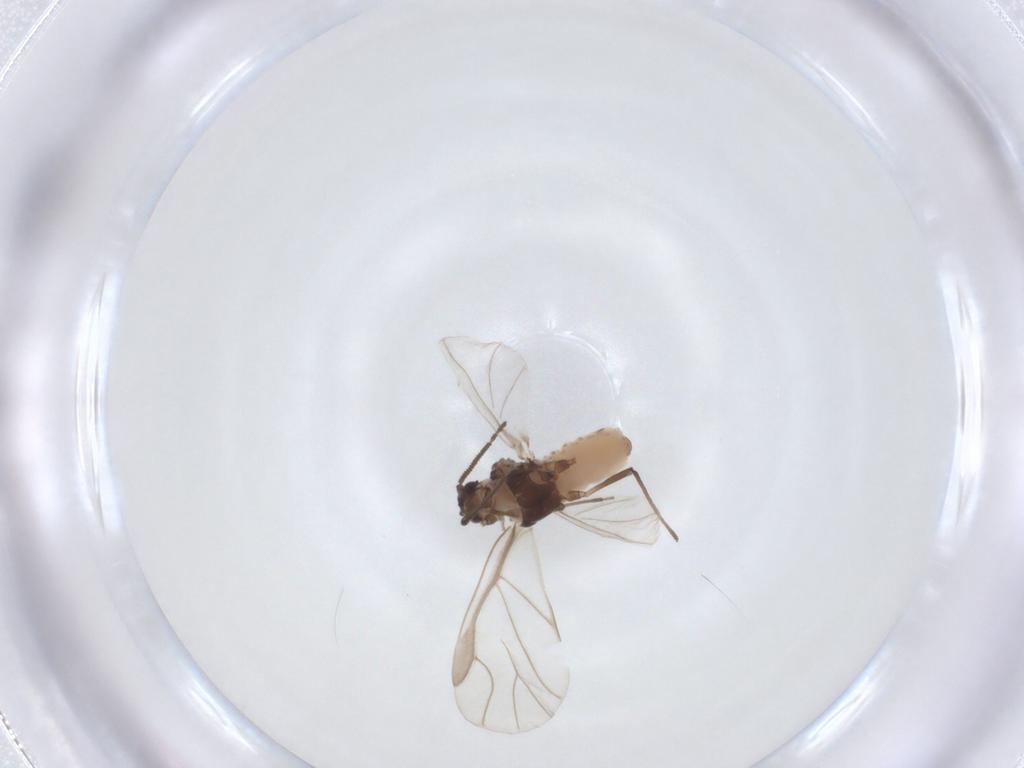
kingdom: Animalia
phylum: Arthropoda
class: Insecta
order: Hemiptera
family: Aphididae
